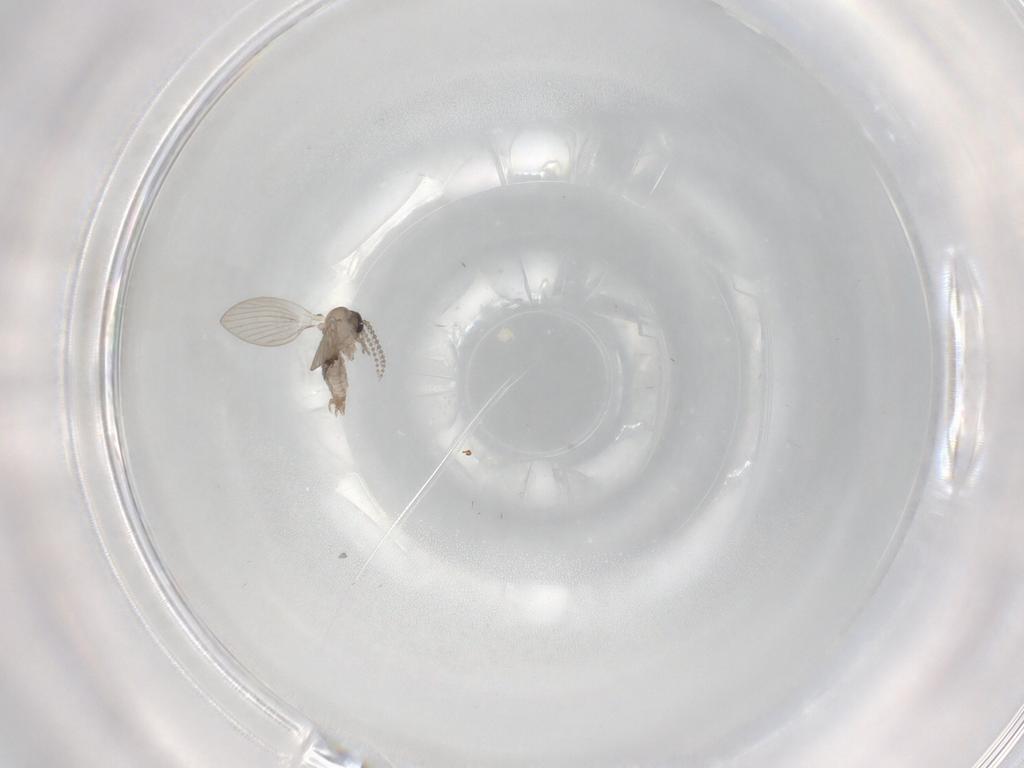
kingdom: Animalia
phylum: Arthropoda
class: Insecta
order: Diptera
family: Psychodidae
